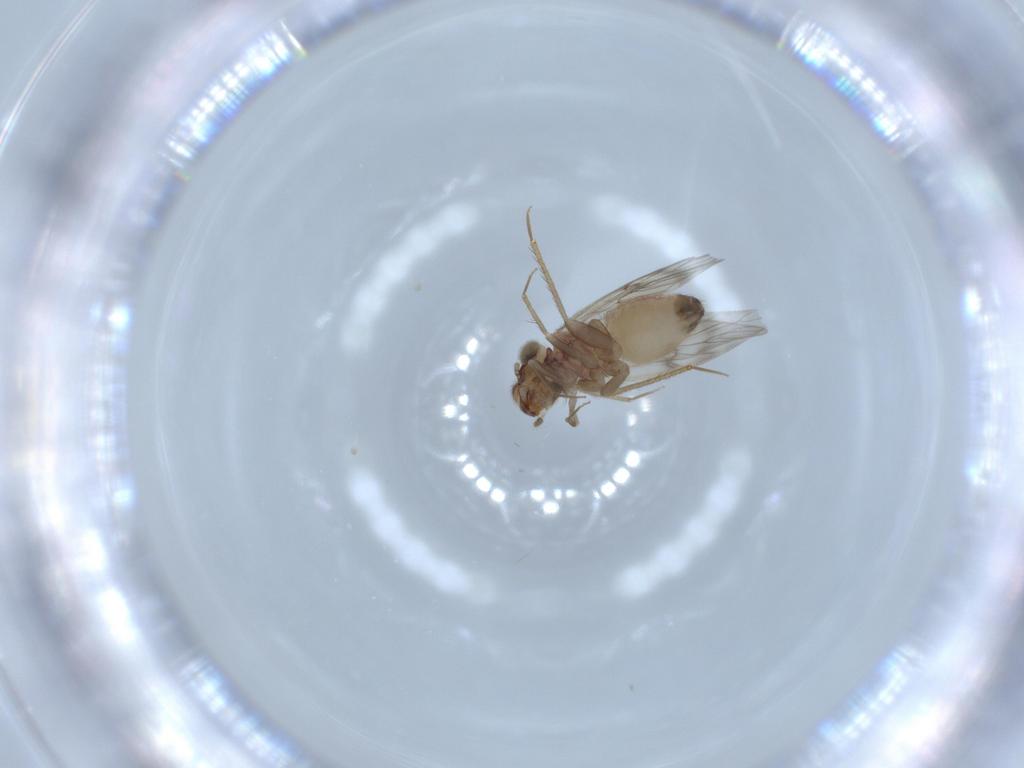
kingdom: Animalia
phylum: Arthropoda
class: Insecta
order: Psocodea
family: Lepidopsocidae
